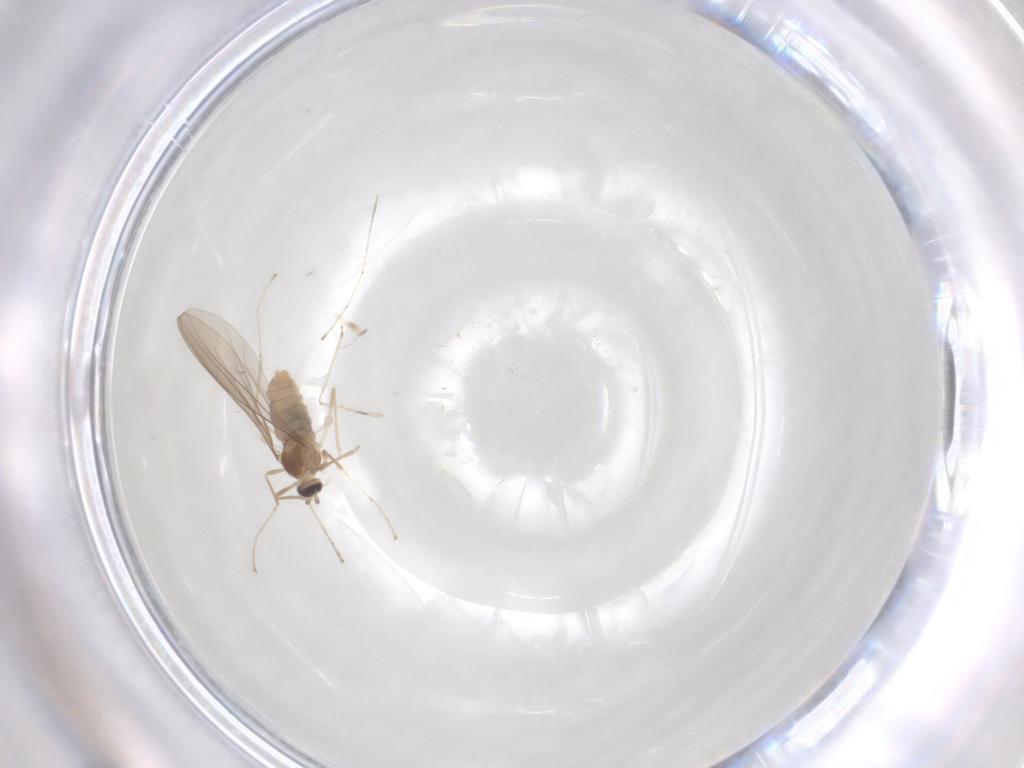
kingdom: Animalia
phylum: Arthropoda
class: Insecta
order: Diptera
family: Cecidomyiidae
